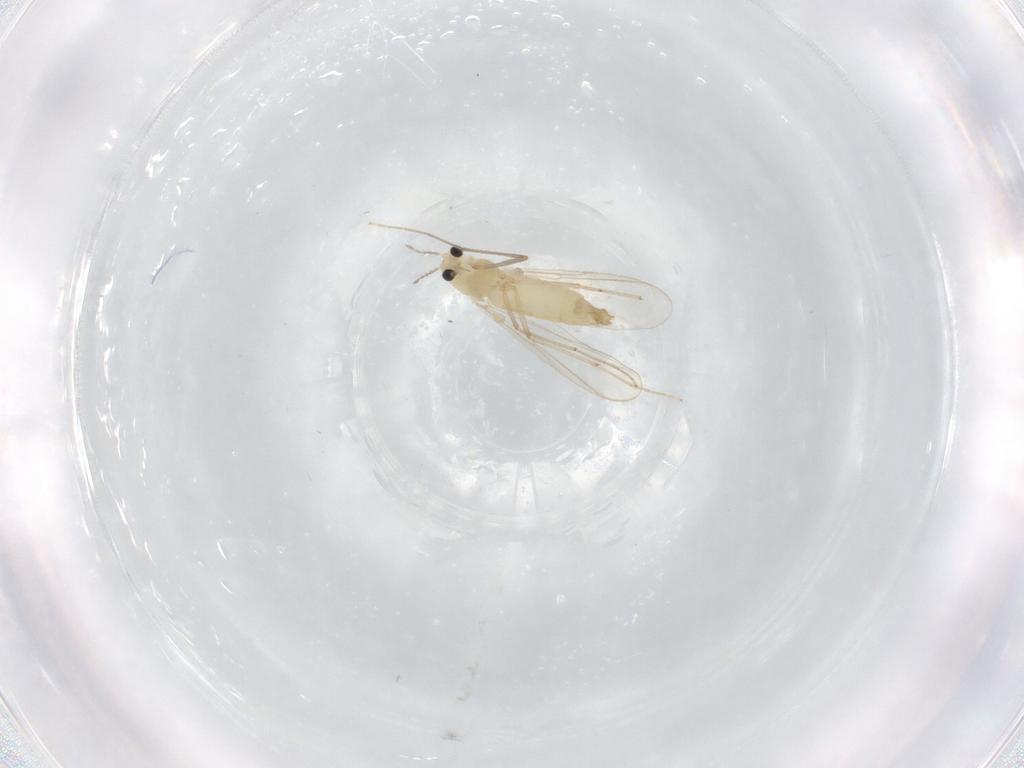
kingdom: Animalia
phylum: Arthropoda
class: Insecta
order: Diptera
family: Chironomidae
